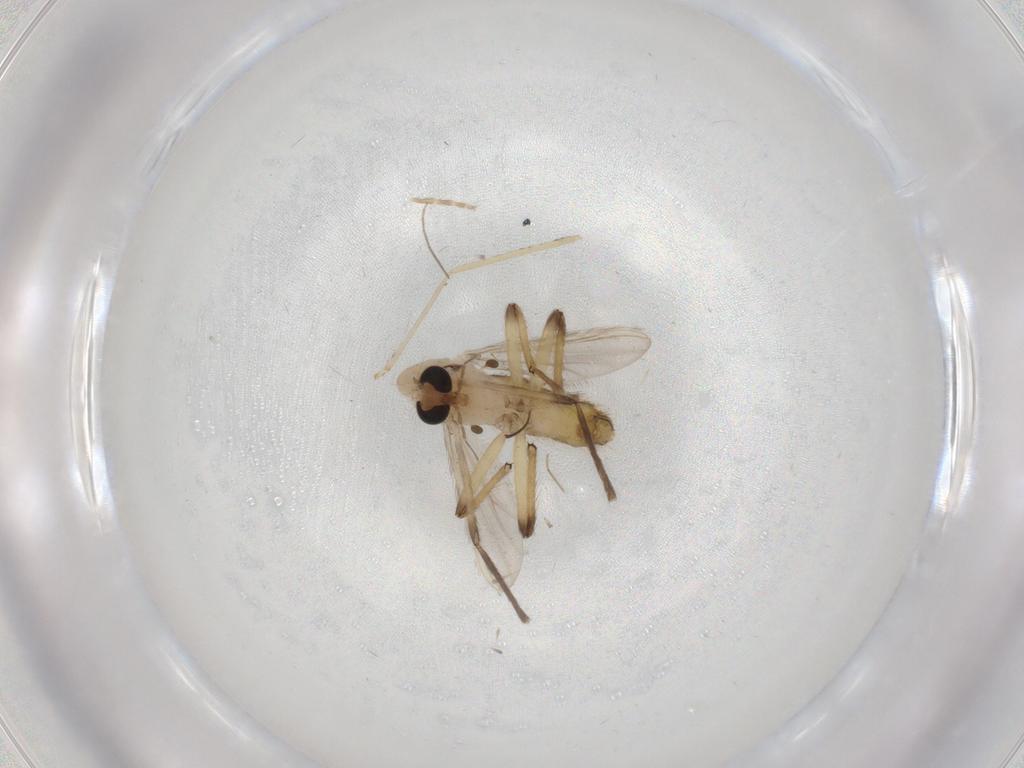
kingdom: Animalia
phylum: Arthropoda
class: Insecta
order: Diptera
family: Chironomidae
